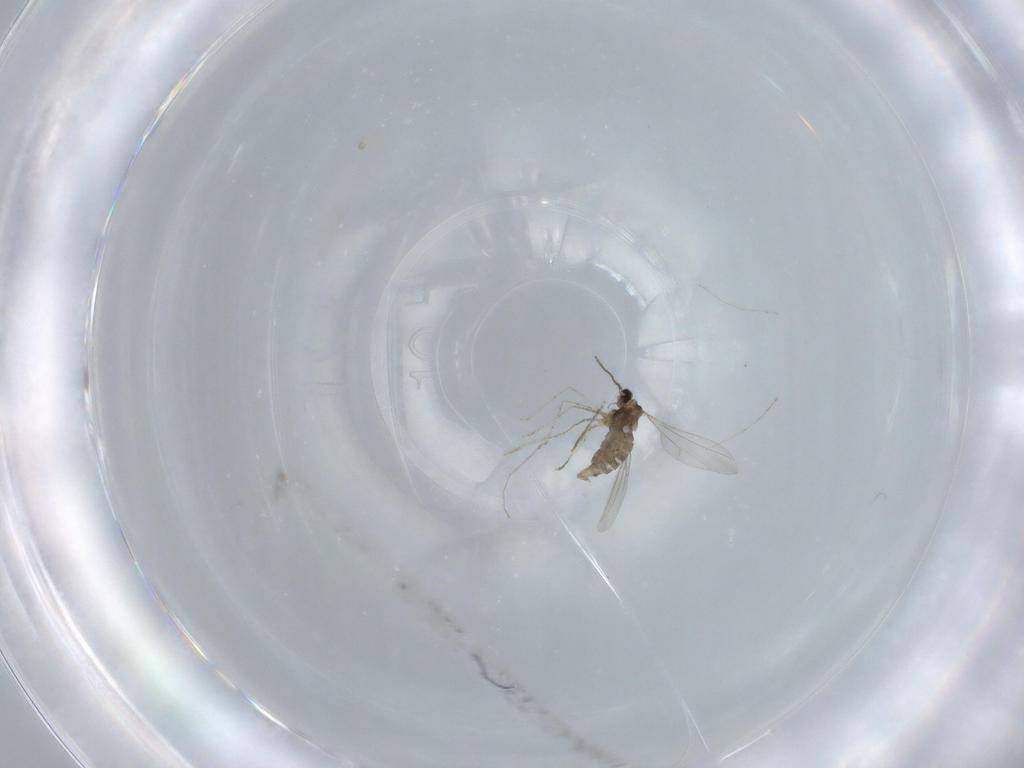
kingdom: Animalia
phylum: Arthropoda
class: Insecta
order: Diptera
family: Cecidomyiidae
